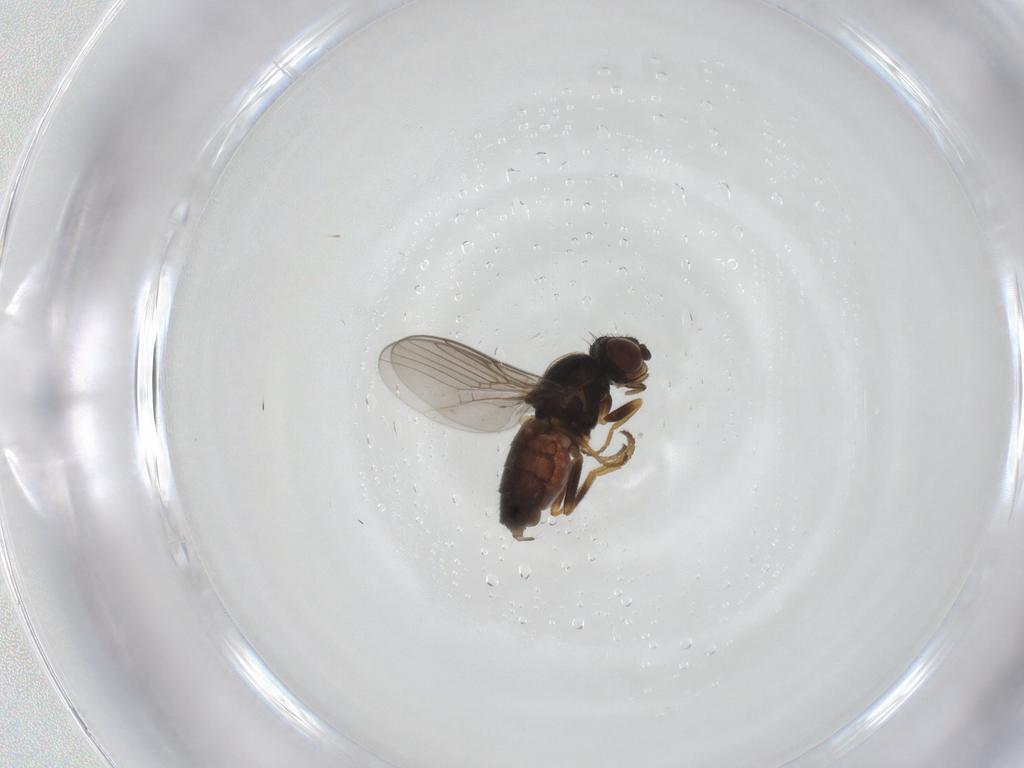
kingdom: Animalia
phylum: Arthropoda
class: Insecta
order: Diptera
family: Chloropidae
